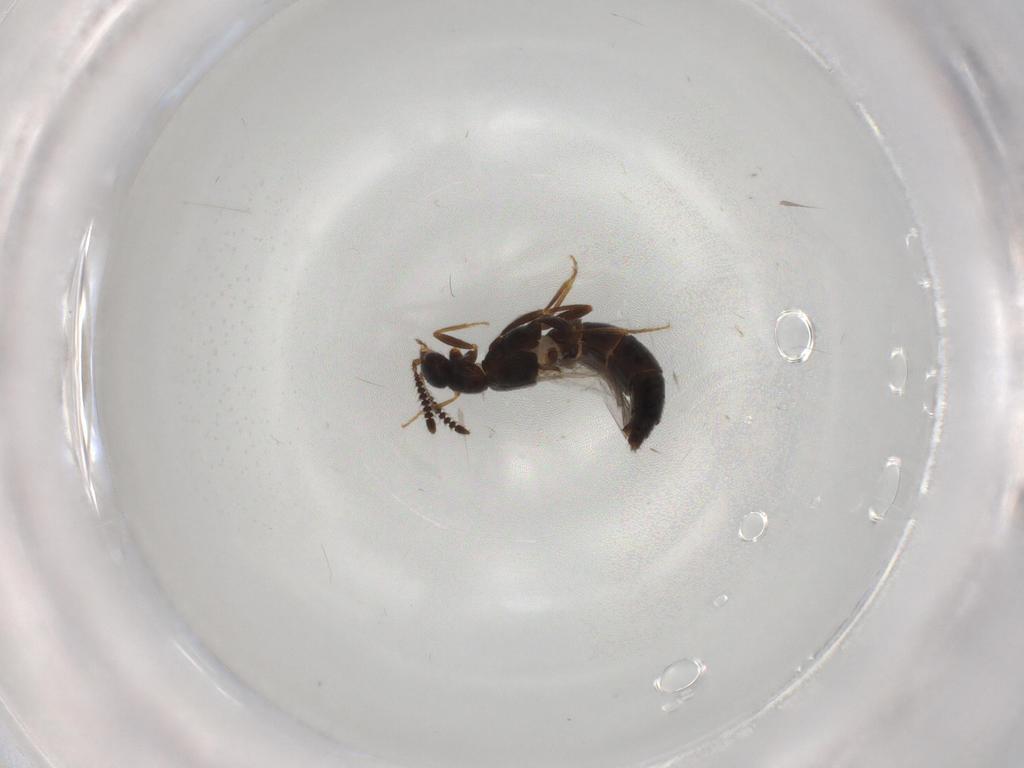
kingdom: Animalia
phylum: Arthropoda
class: Insecta
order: Coleoptera
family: Staphylinidae
